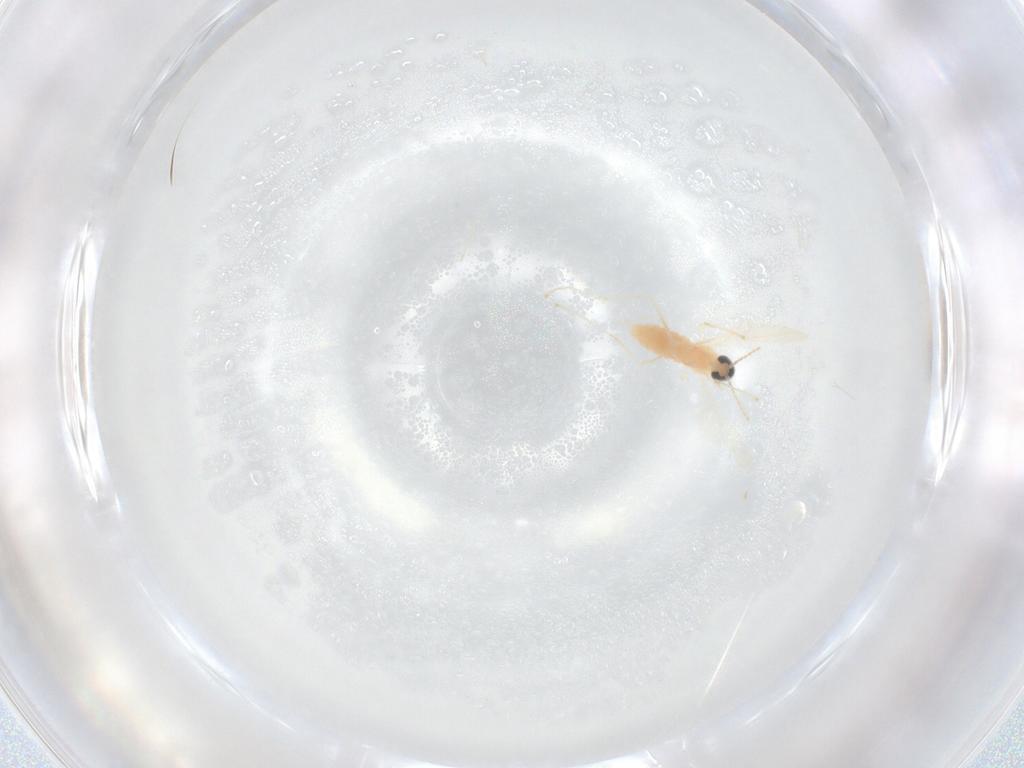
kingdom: Animalia
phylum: Arthropoda
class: Insecta
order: Diptera
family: Cecidomyiidae
